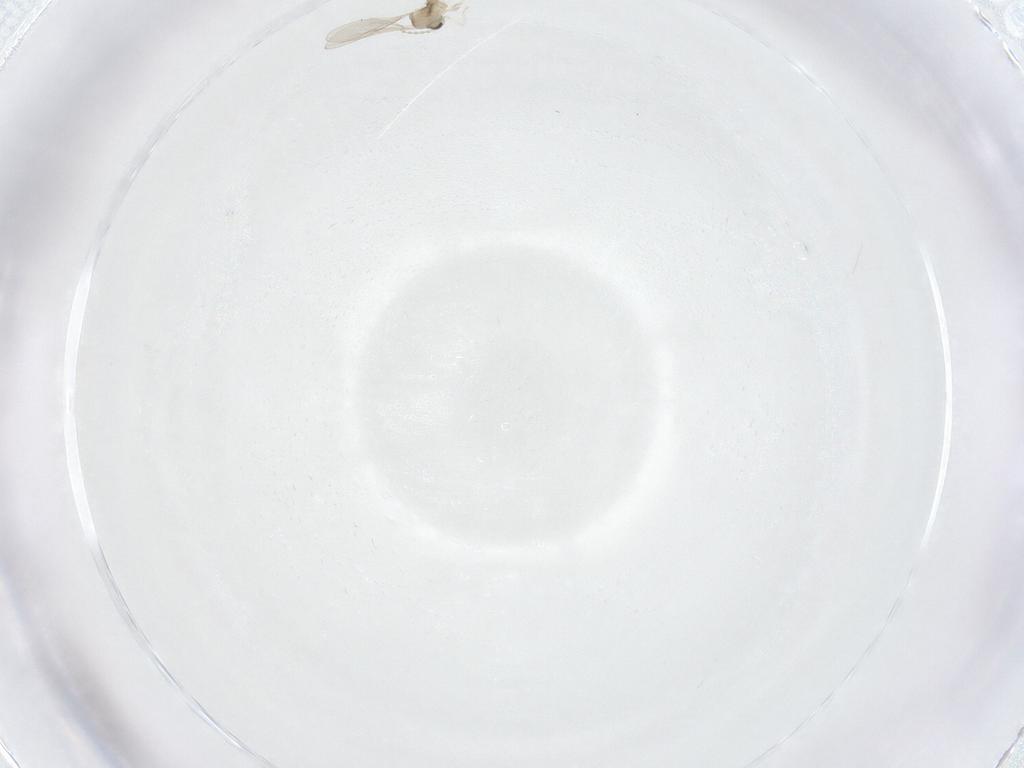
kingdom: Animalia
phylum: Arthropoda
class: Insecta
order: Diptera
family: Cecidomyiidae
